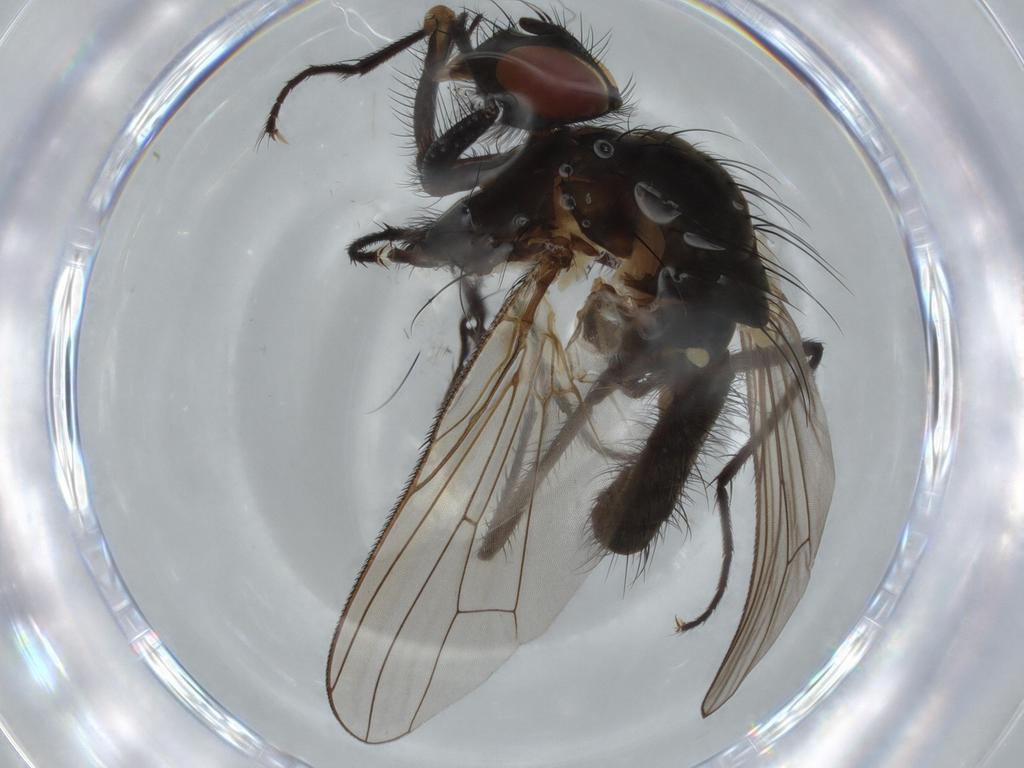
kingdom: Animalia
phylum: Arthropoda
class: Insecta
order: Diptera
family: Anthomyiidae
